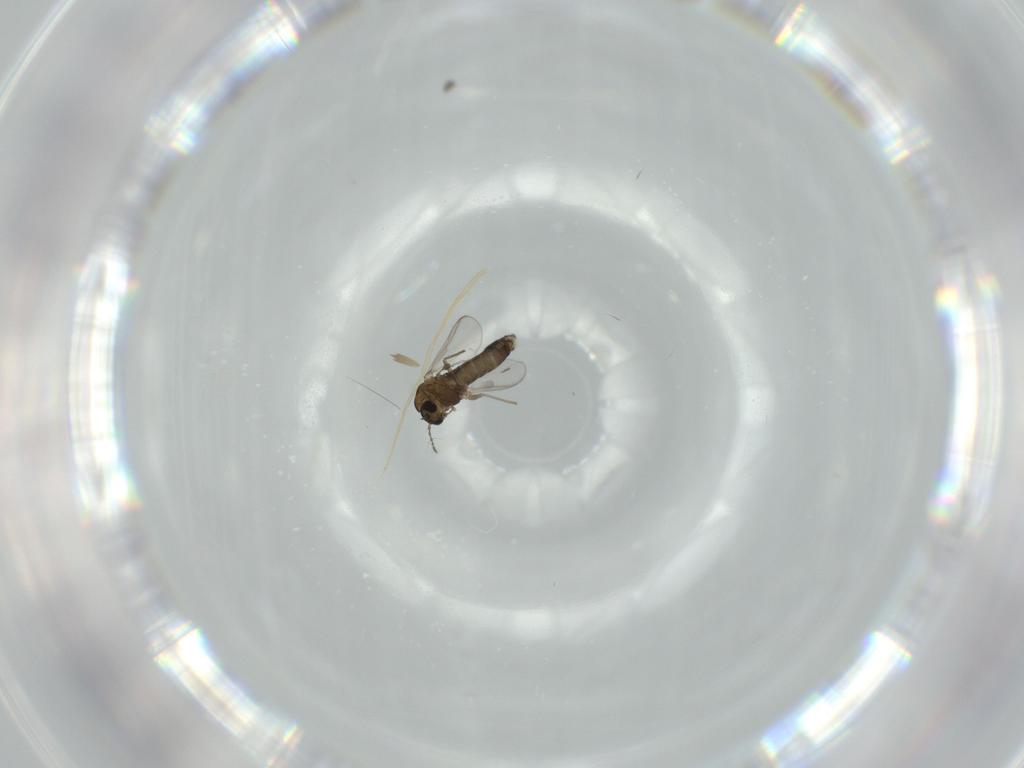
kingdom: Animalia
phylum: Arthropoda
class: Insecta
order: Diptera
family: Chironomidae
